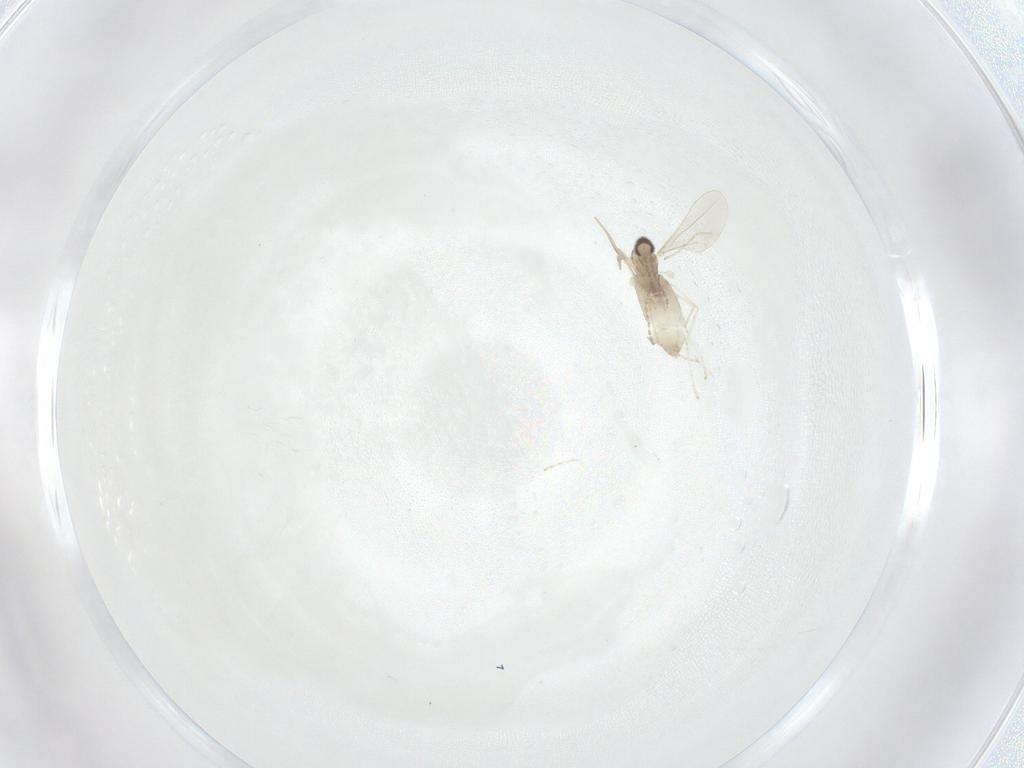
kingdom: Animalia
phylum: Arthropoda
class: Insecta
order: Diptera
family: Cecidomyiidae
